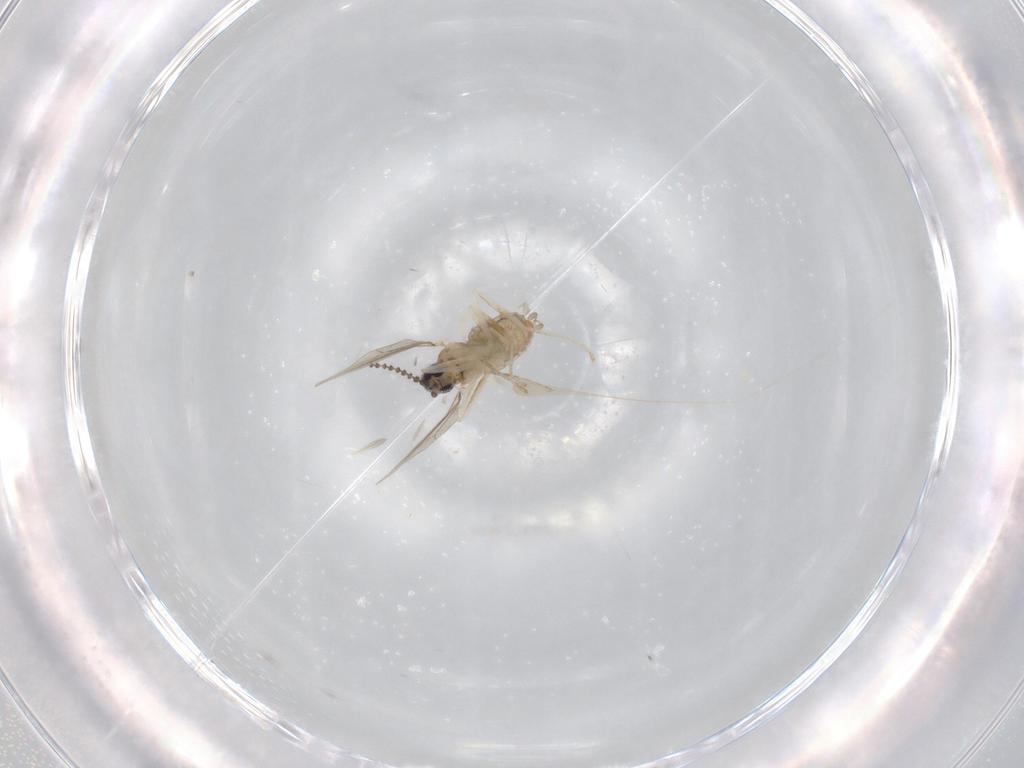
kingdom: Animalia
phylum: Arthropoda
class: Insecta
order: Diptera
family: Cecidomyiidae
